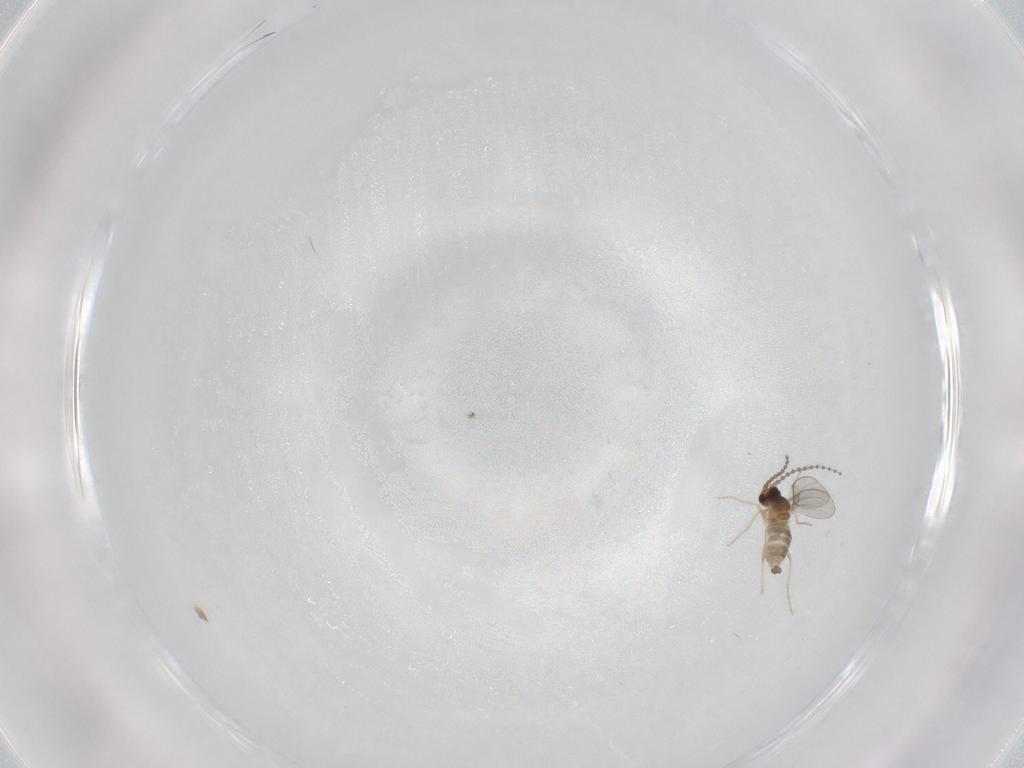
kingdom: Animalia
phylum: Arthropoda
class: Insecta
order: Diptera
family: Cecidomyiidae
